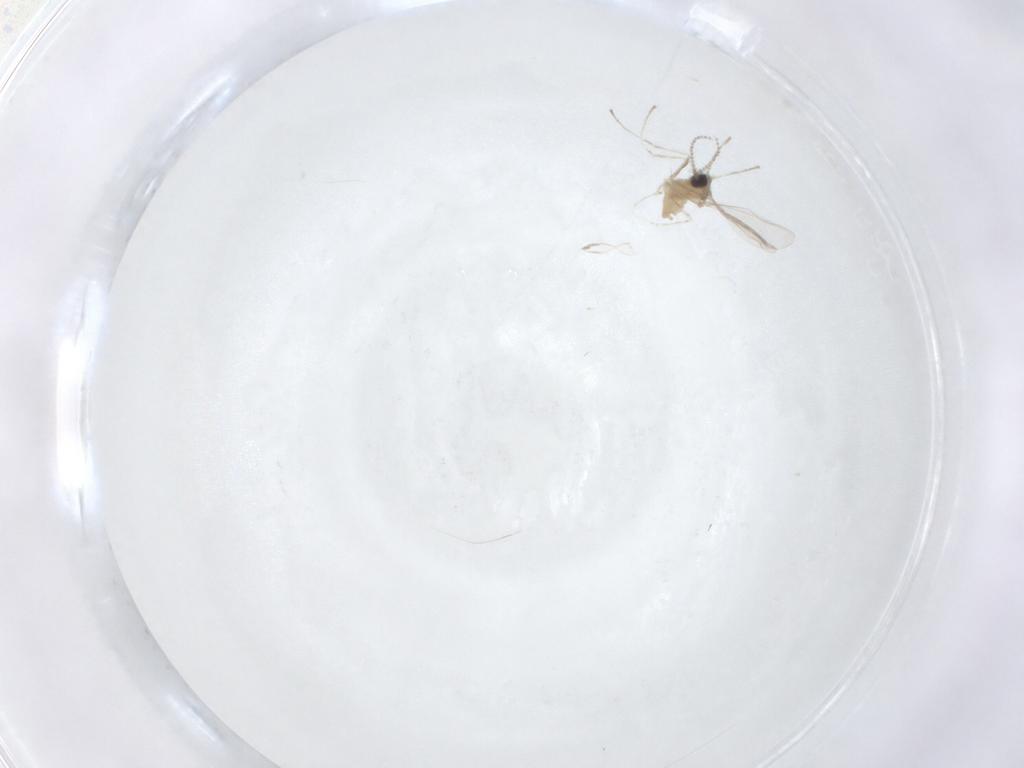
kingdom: Animalia
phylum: Arthropoda
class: Insecta
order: Diptera
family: Cecidomyiidae
